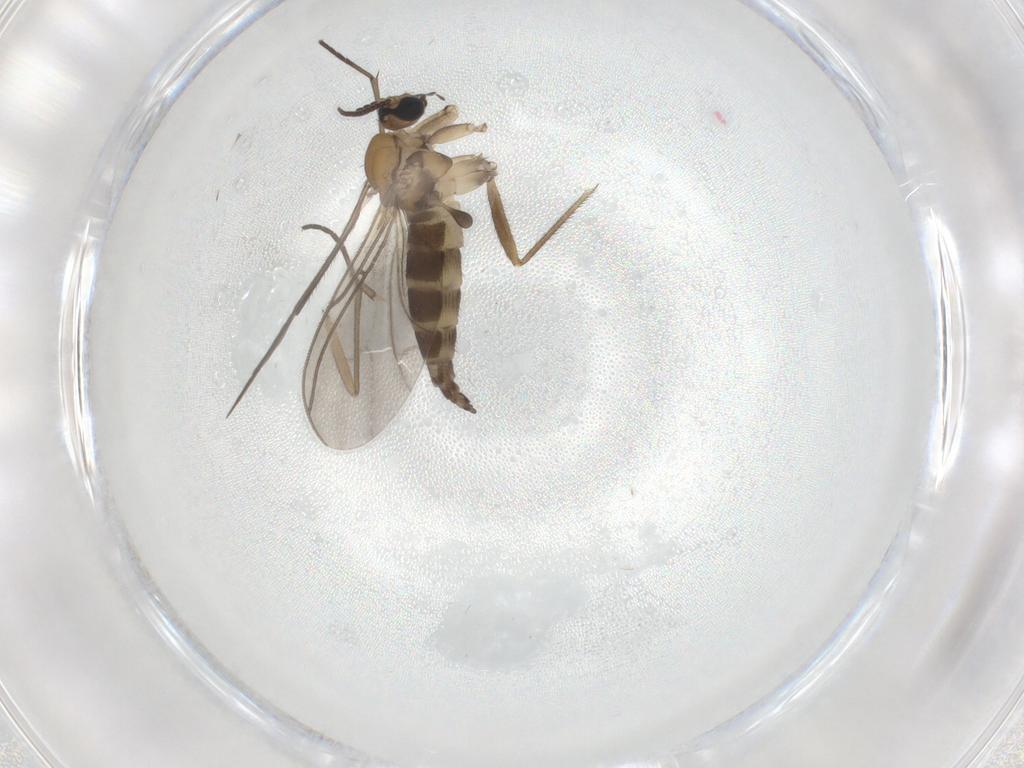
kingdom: Animalia
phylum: Arthropoda
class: Insecta
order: Diptera
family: Sciaridae
